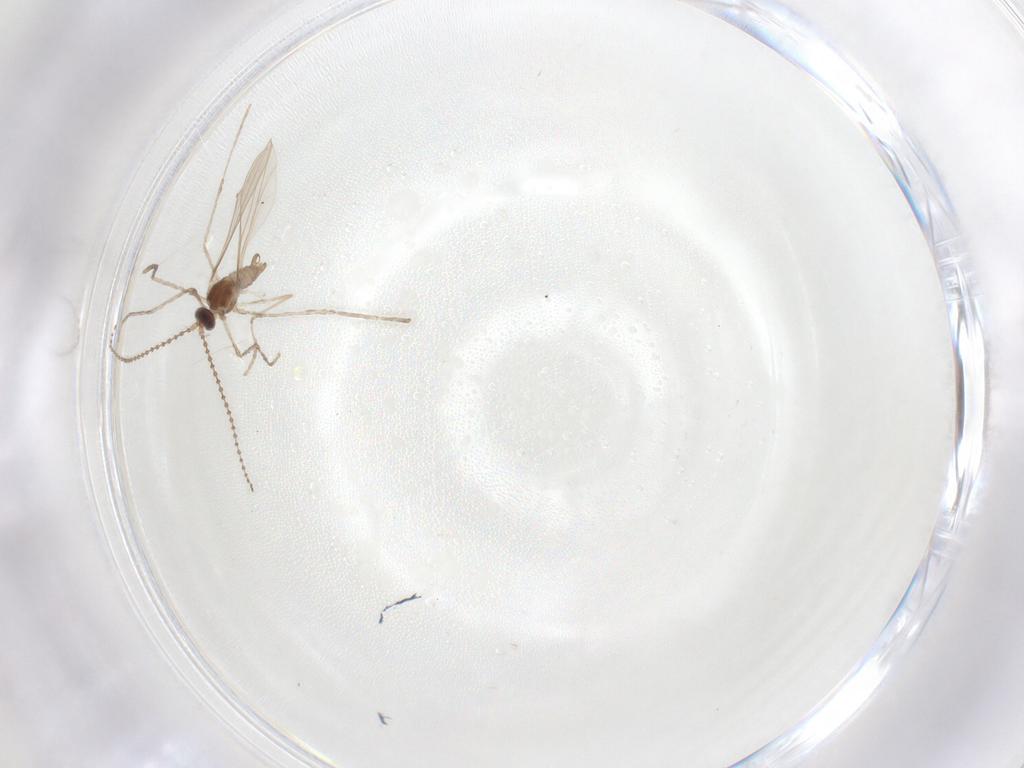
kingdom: Animalia
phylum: Arthropoda
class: Insecta
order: Diptera
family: Cecidomyiidae
